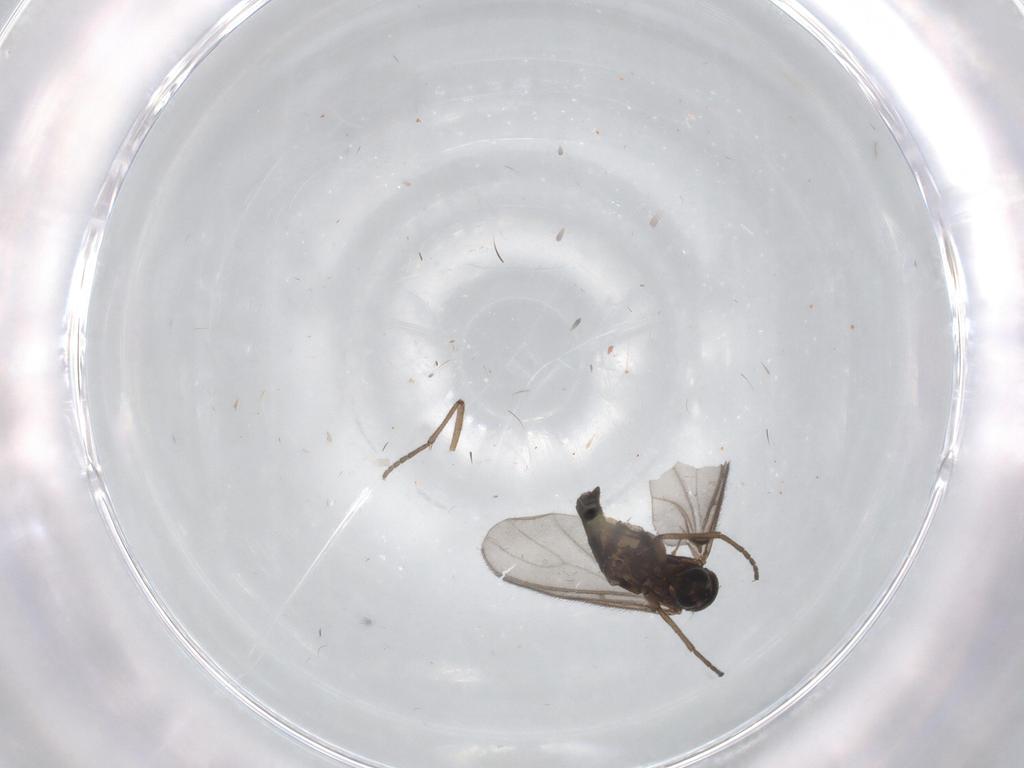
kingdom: Animalia
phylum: Arthropoda
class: Insecta
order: Diptera
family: Sciaridae
